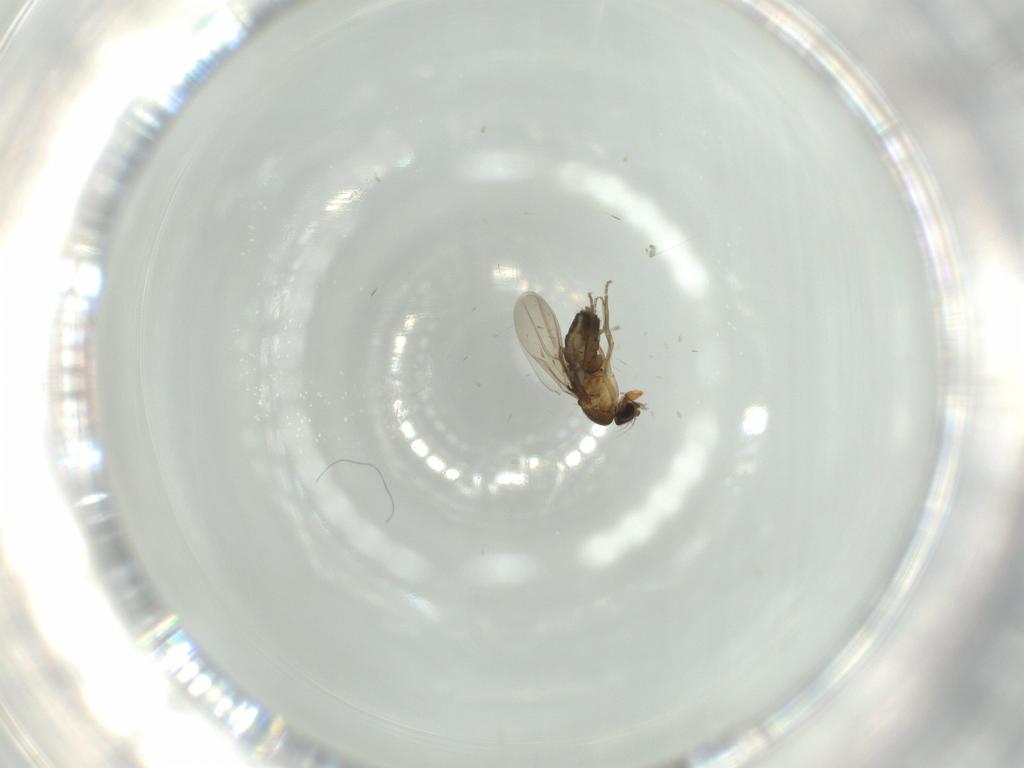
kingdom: Animalia
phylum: Arthropoda
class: Insecta
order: Diptera
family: Phoridae
